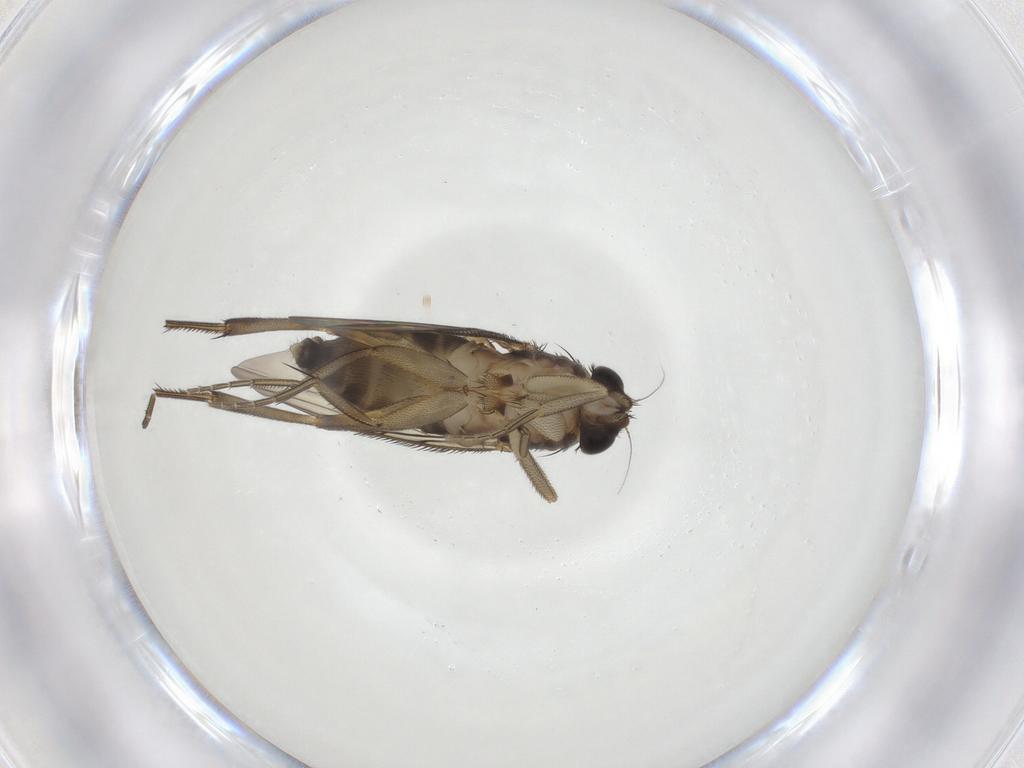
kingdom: Animalia
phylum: Arthropoda
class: Insecta
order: Diptera
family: Phoridae
